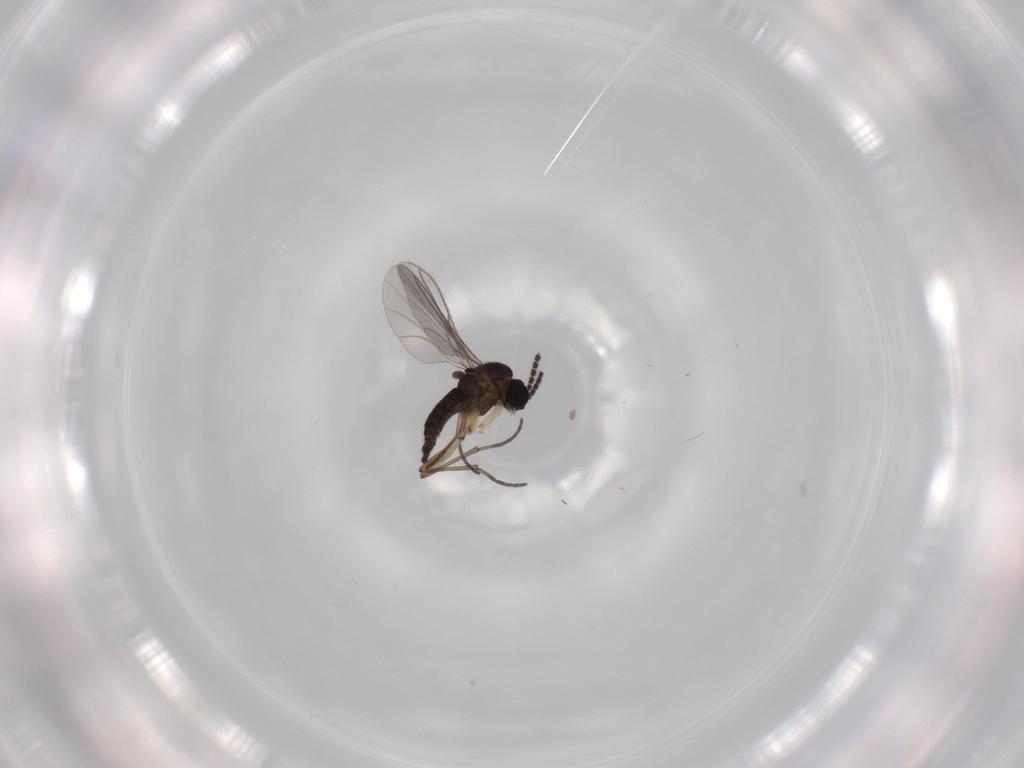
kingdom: Animalia
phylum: Arthropoda
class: Insecta
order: Diptera
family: Sciaridae
